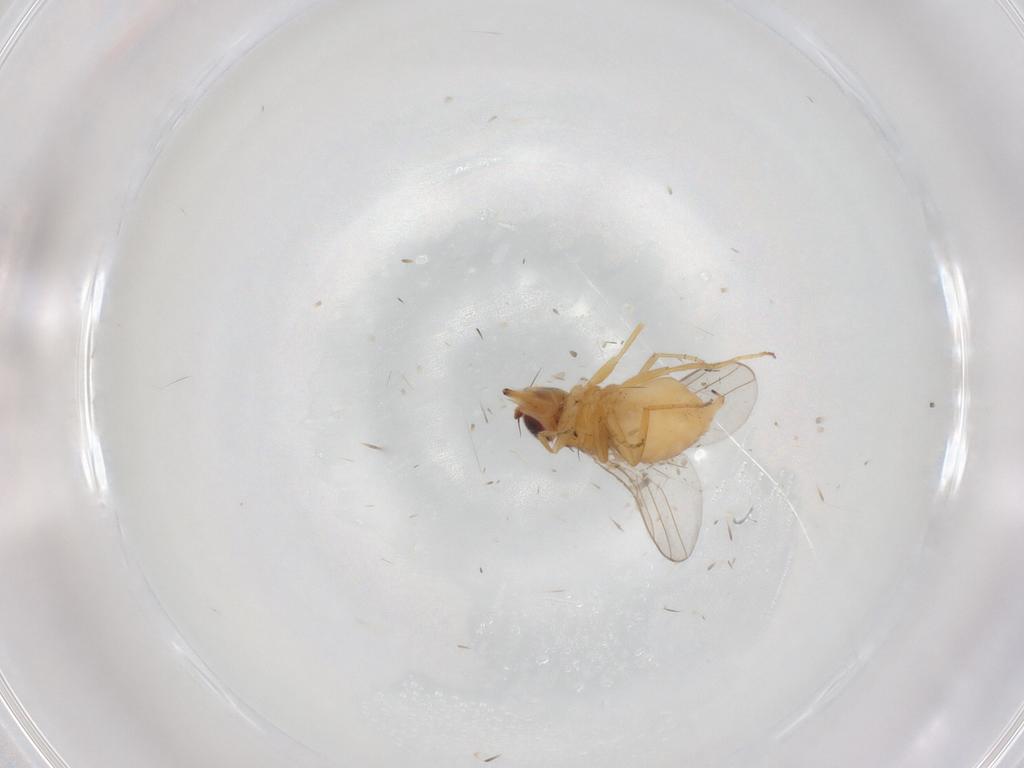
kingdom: Animalia
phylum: Arthropoda
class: Insecta
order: Diptera
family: Chloropidae
